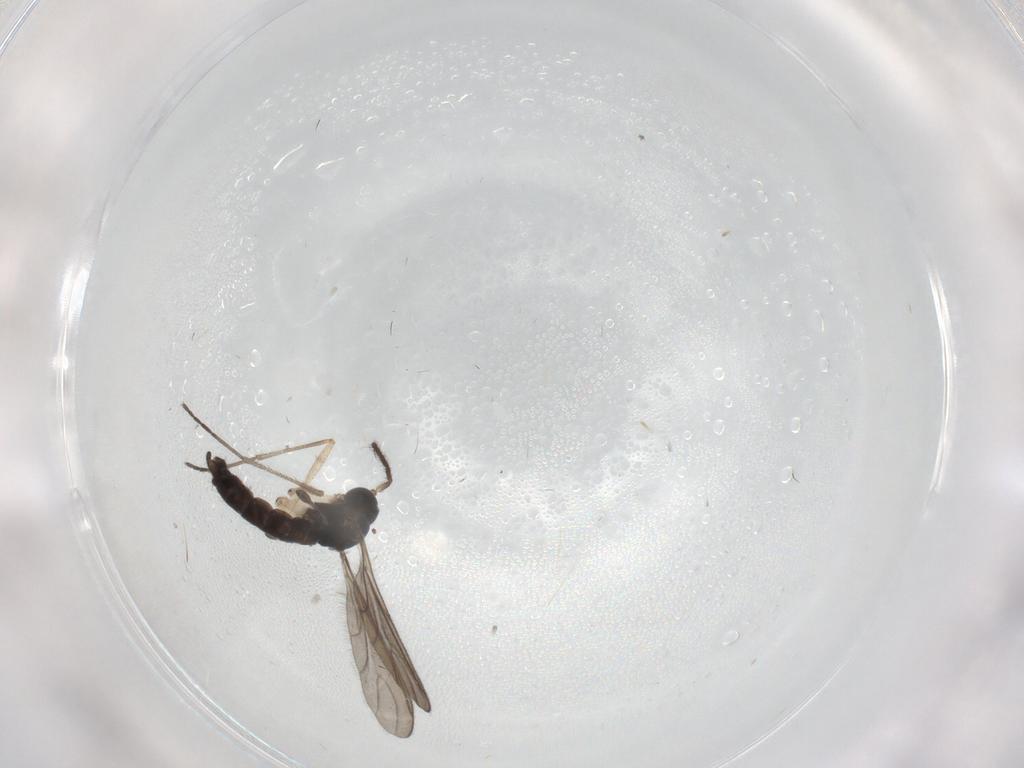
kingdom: Animalia
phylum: Arthropoda
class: Insecta
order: Diptera
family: Sciaridae
